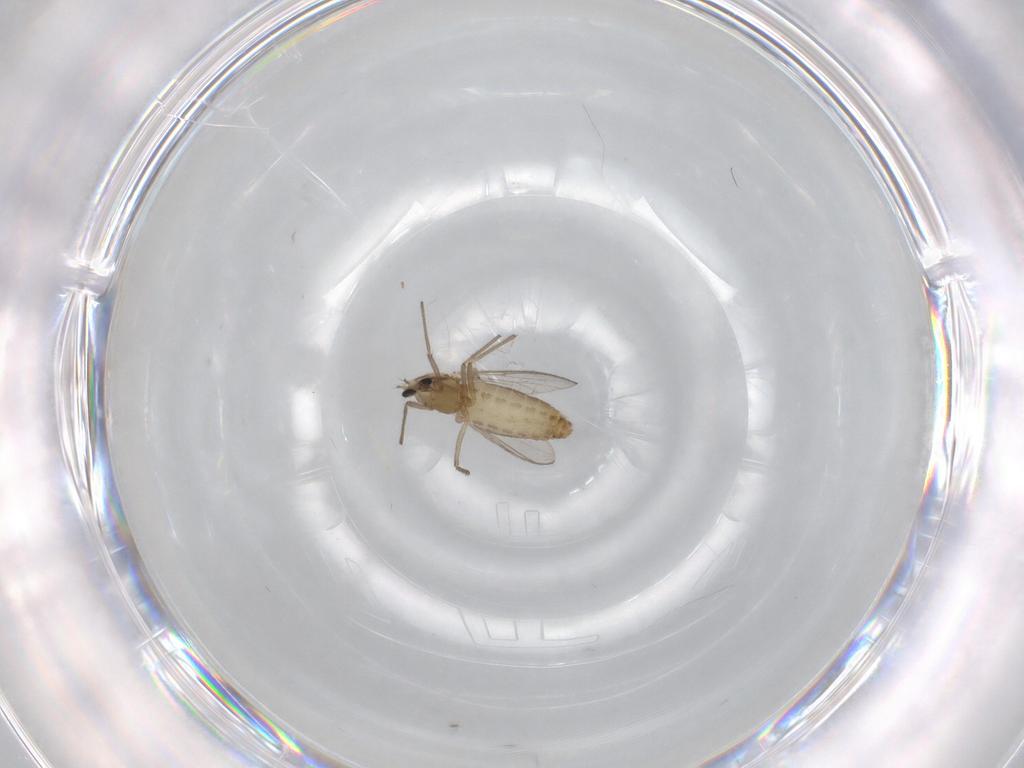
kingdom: Animalia
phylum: Arthropoda
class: Insecta
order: Diptera
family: Chironomidae
